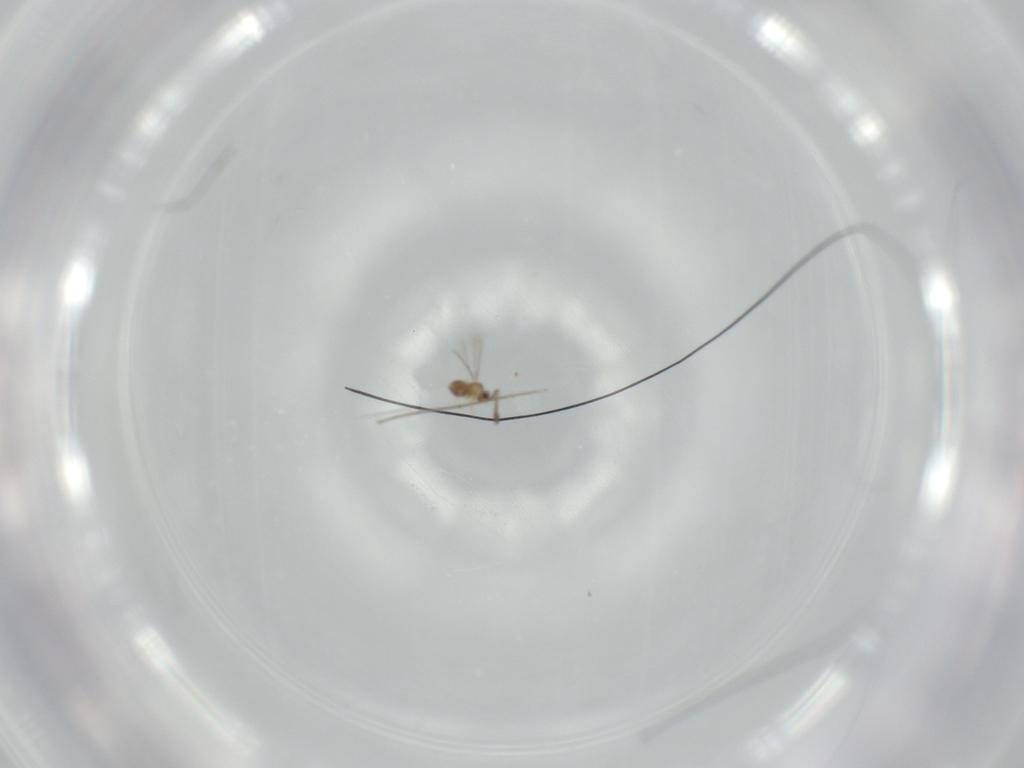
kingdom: Animalia
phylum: Arthropoda
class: Insecta
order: Diptera
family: Cecidomyiidae
